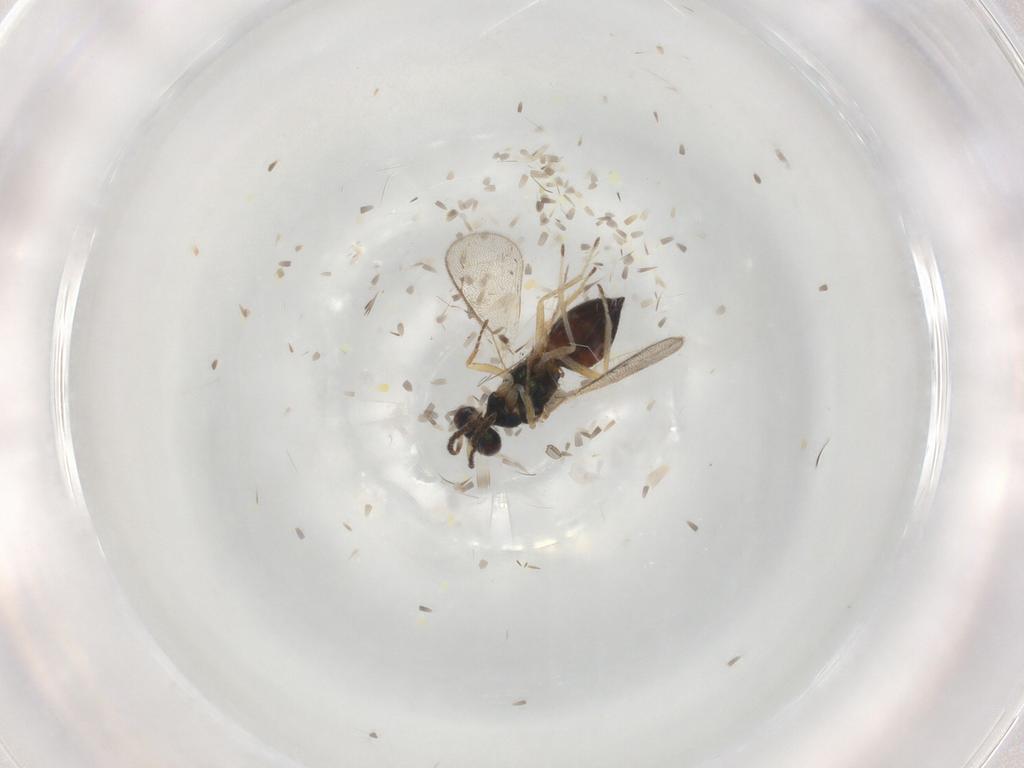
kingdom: Animalia
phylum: Arthropoda
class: Insecta
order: Hymenoptera
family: Eulophidae
